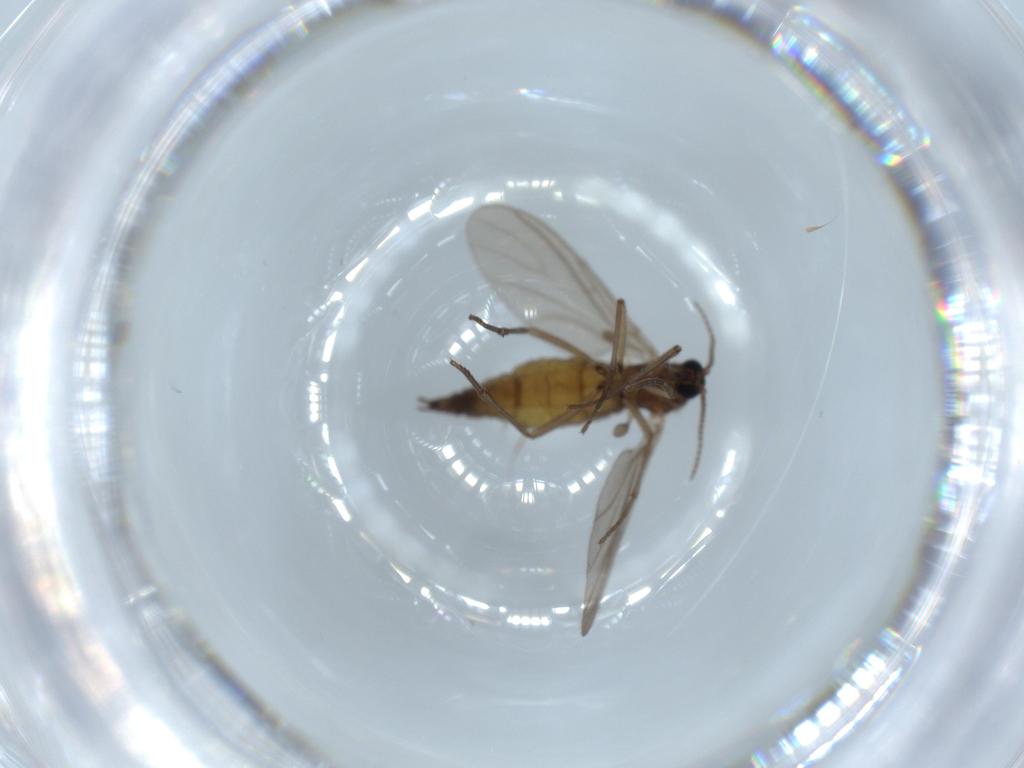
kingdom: Animalia
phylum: Arthropoda
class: Insecta
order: Diptera
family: Sciaridae
